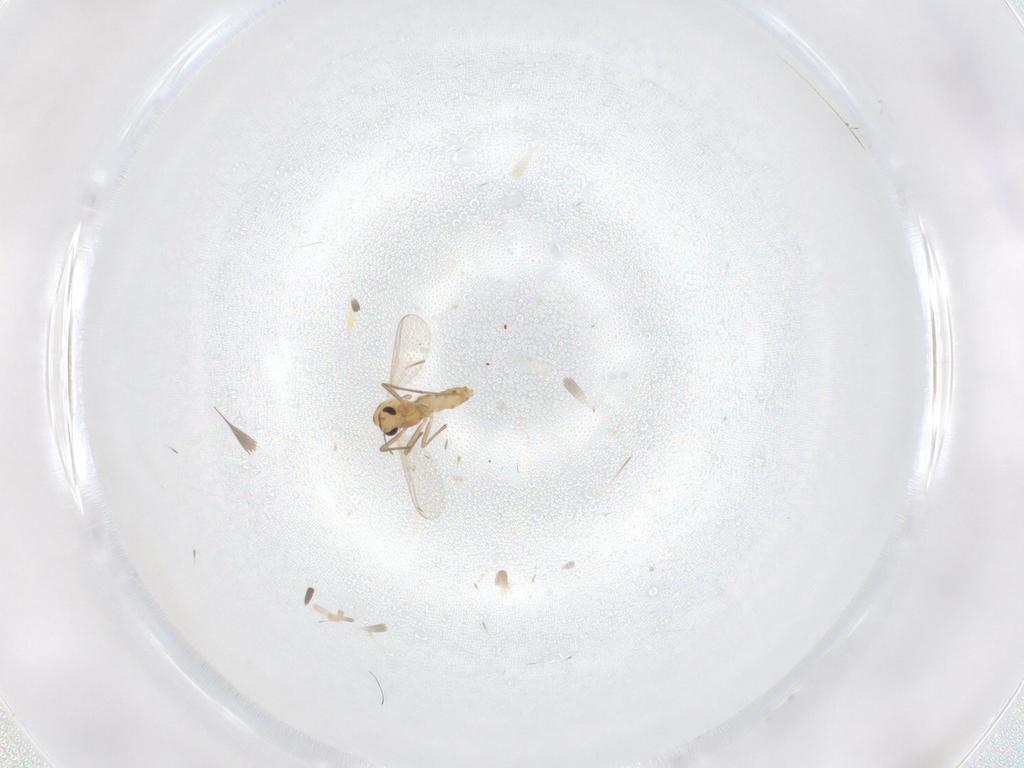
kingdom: Animalia
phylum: Arthropoda
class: Insecta
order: Diptera
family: Chironomidae
